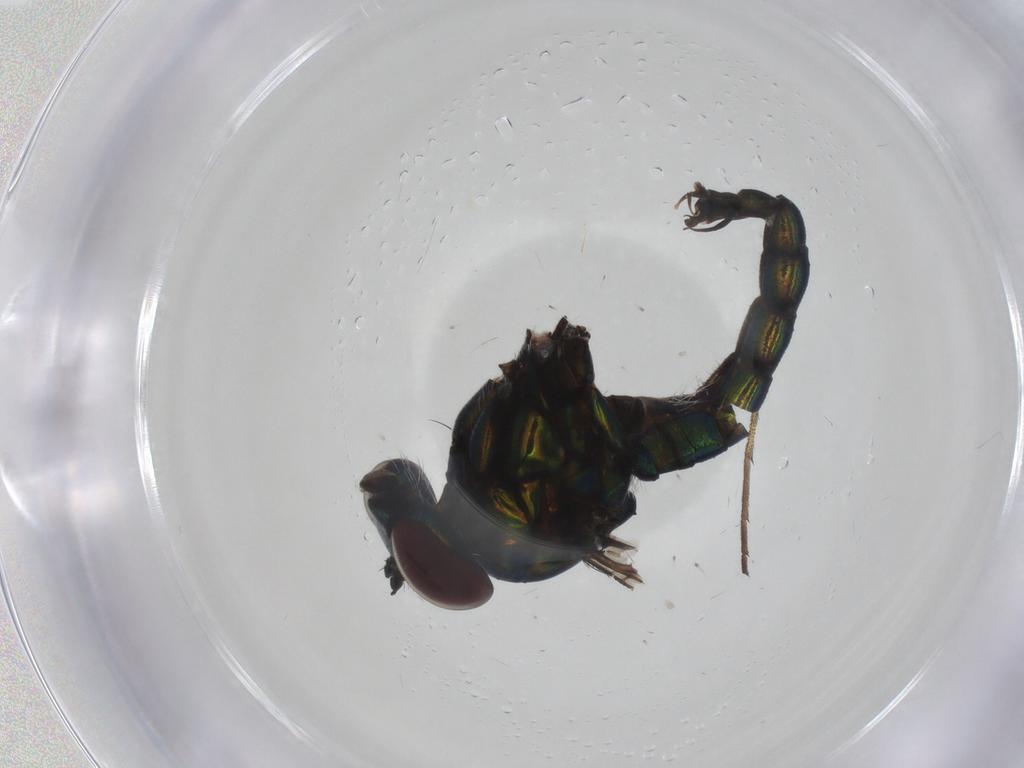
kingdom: Animalia
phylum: Arthropoda
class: Insecta
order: Diptera
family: Dolichopodidae
